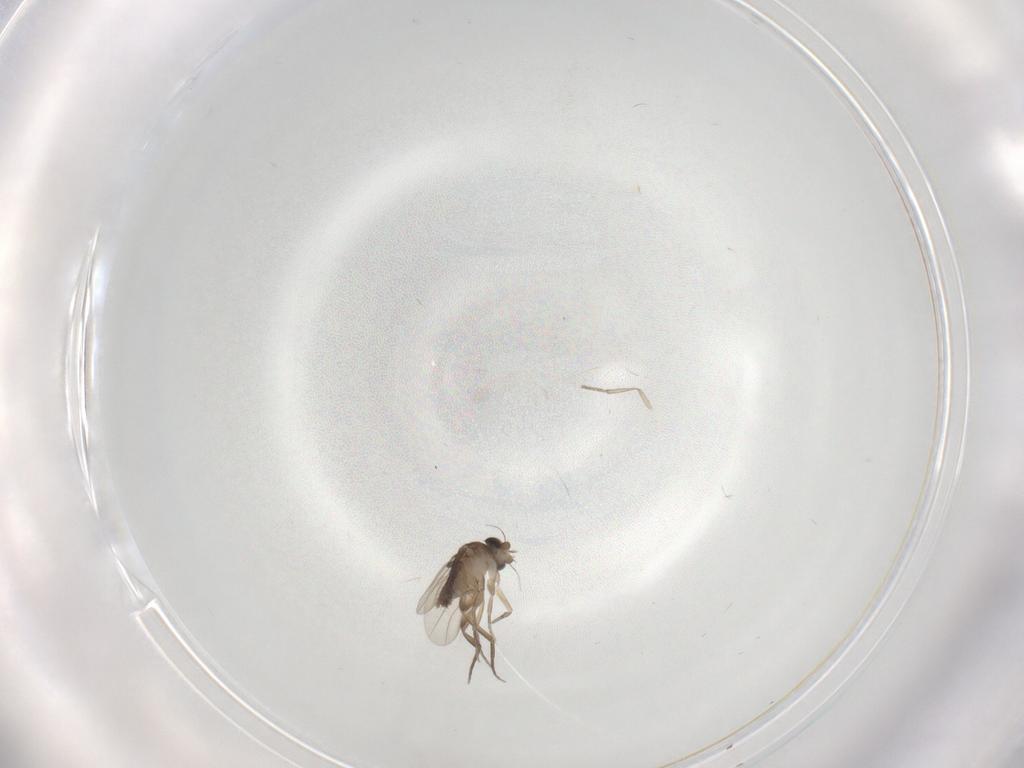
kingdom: Animalia
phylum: Arthropoda
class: Insecta
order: Diptera
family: Phoridae
